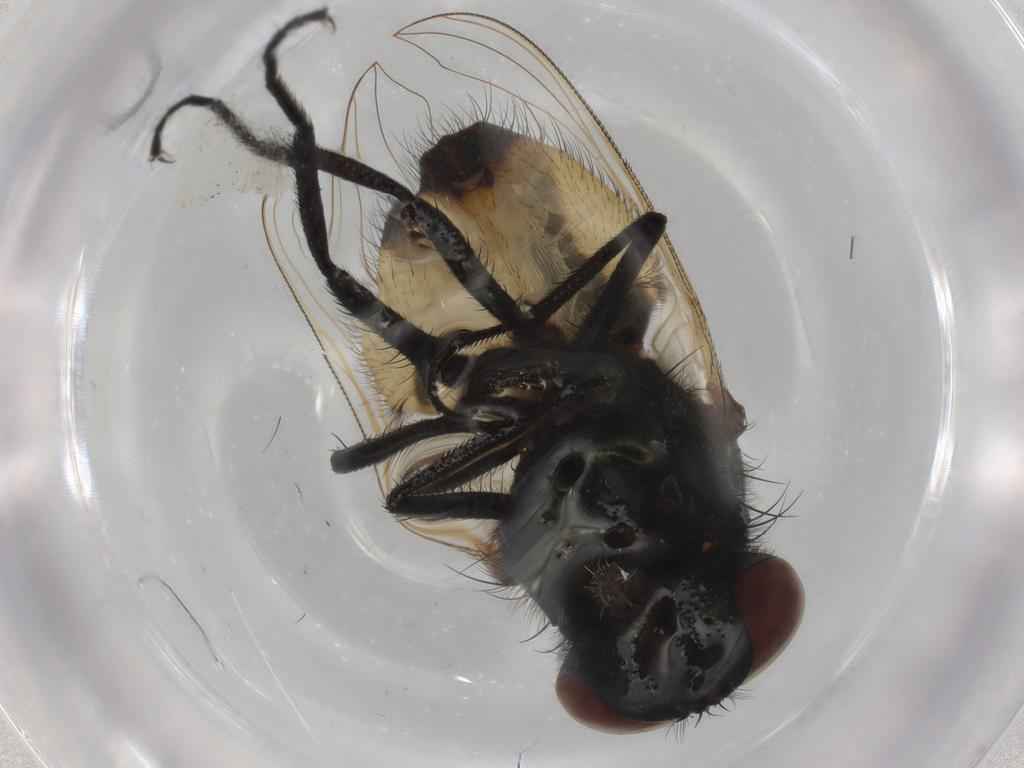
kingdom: Animalia
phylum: Arthropoda
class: Insecta
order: Diptera
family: Muscidae
